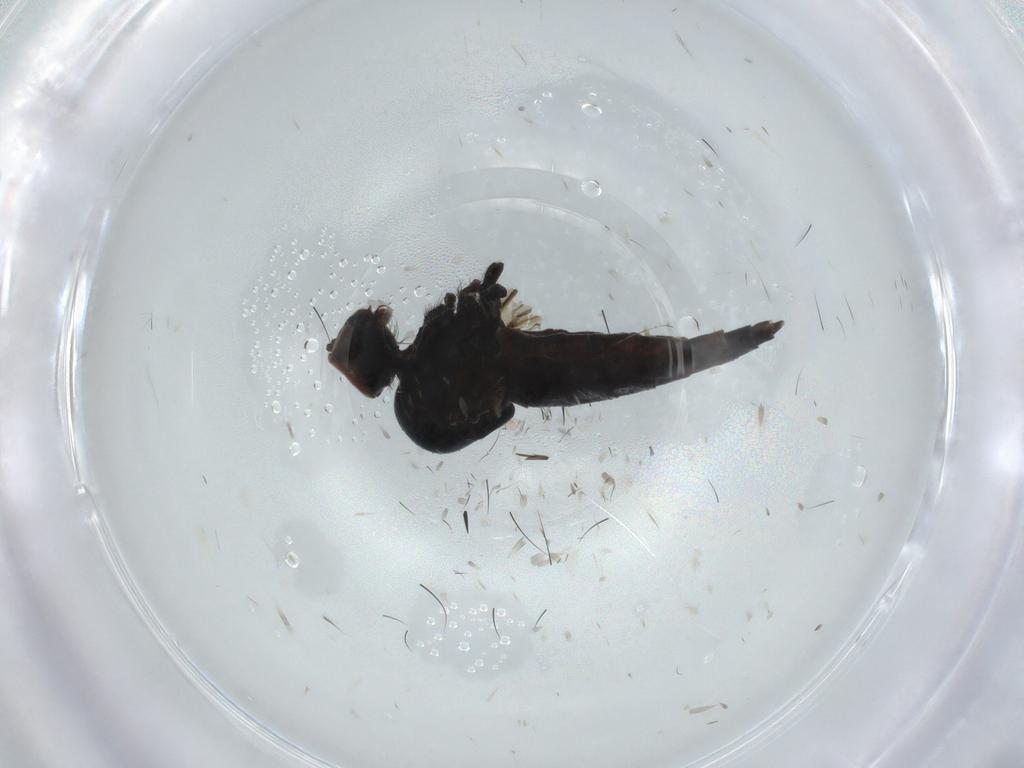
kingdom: Animalia
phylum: Arthropoda
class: Insecta
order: Diptera
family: Hybotidae
